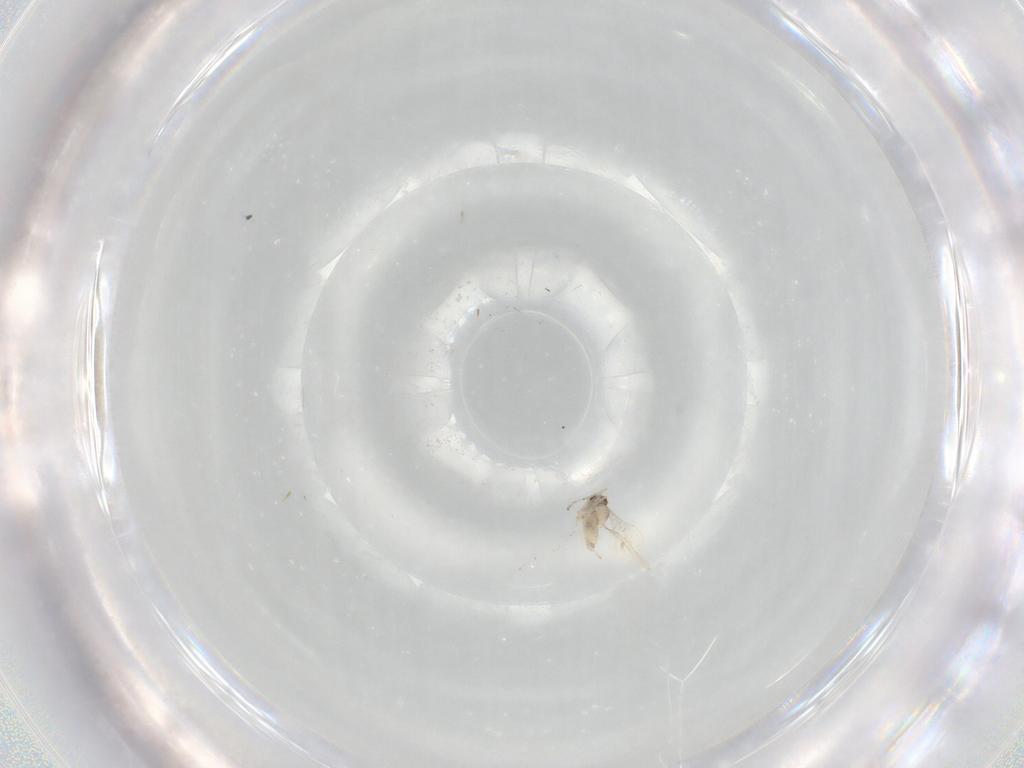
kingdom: Animalia
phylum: Arthropoda
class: Insecta
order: Diptera
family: Cecidomyiidae
